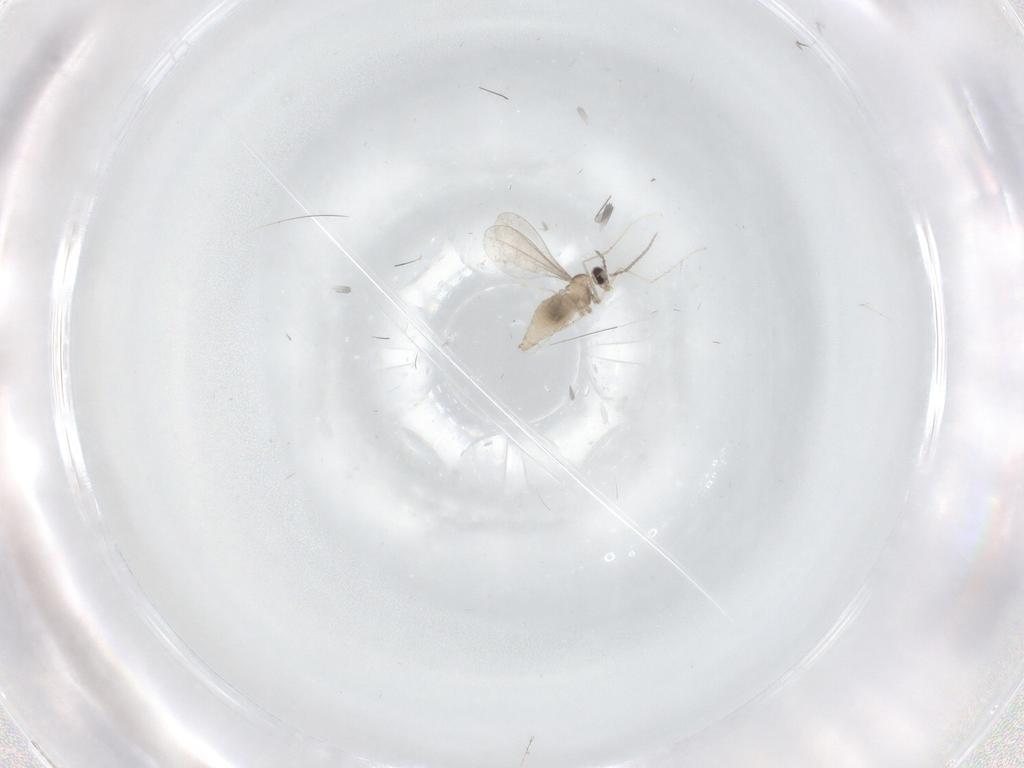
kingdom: Animalia
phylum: Arthropoda
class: Insecta
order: Diptera
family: Cecidomyiidae
